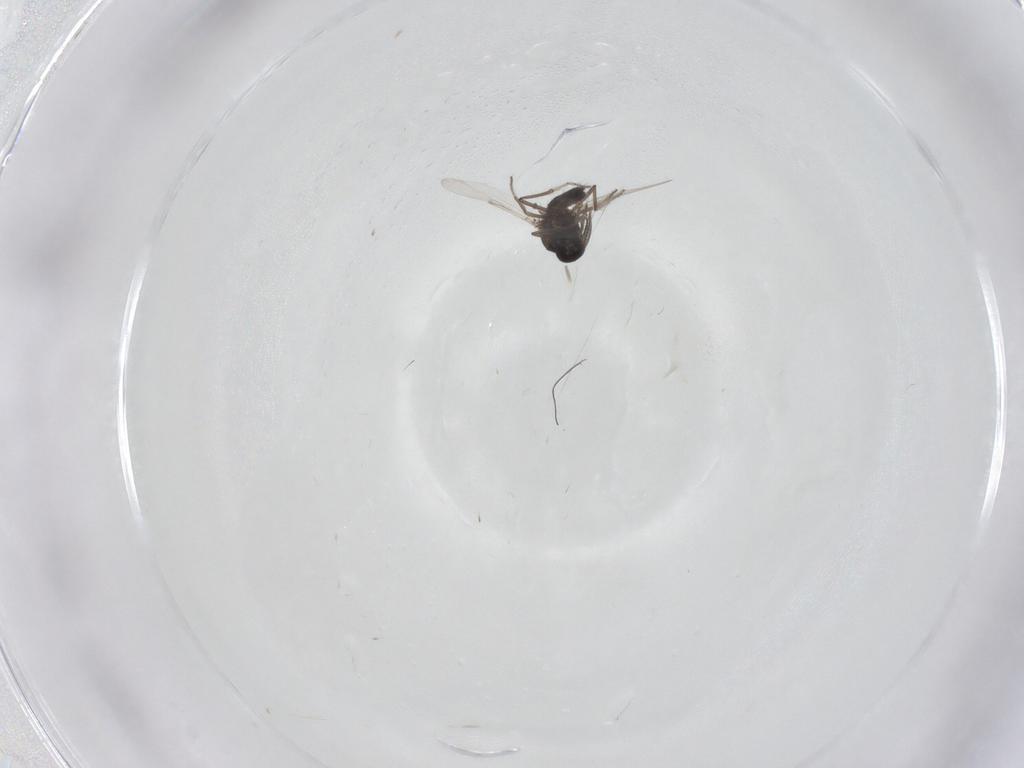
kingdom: Animalia
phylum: Arthropoda
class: Insecta
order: Diptera
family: Ceratopogonidae
